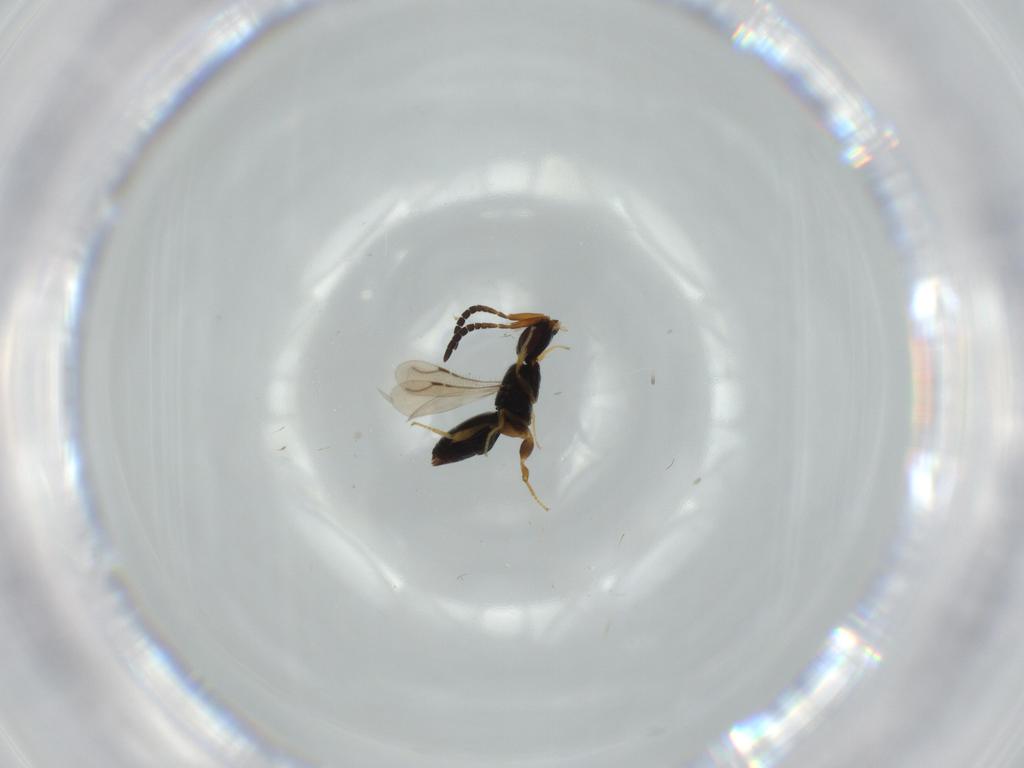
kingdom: Animalia
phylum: Arthropoda
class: Insecta
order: Hymenoptera
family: Ceraphronidae
